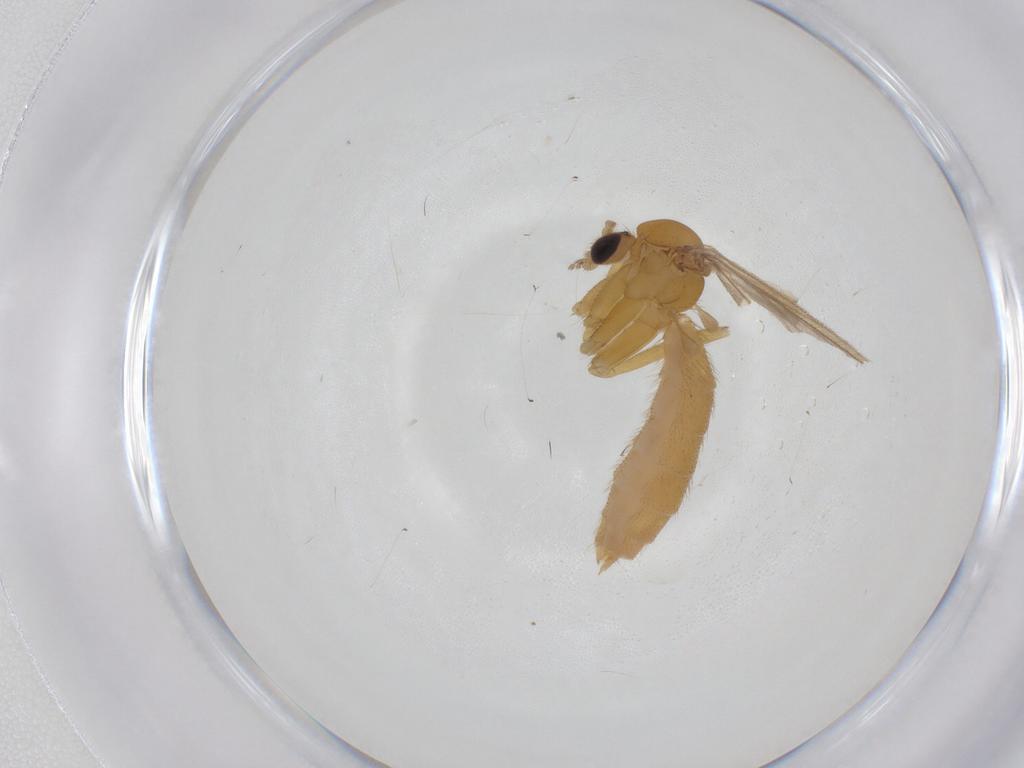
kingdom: Animalia
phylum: Arthropoda
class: Insecta
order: Diptera
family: Mycetophilidae
